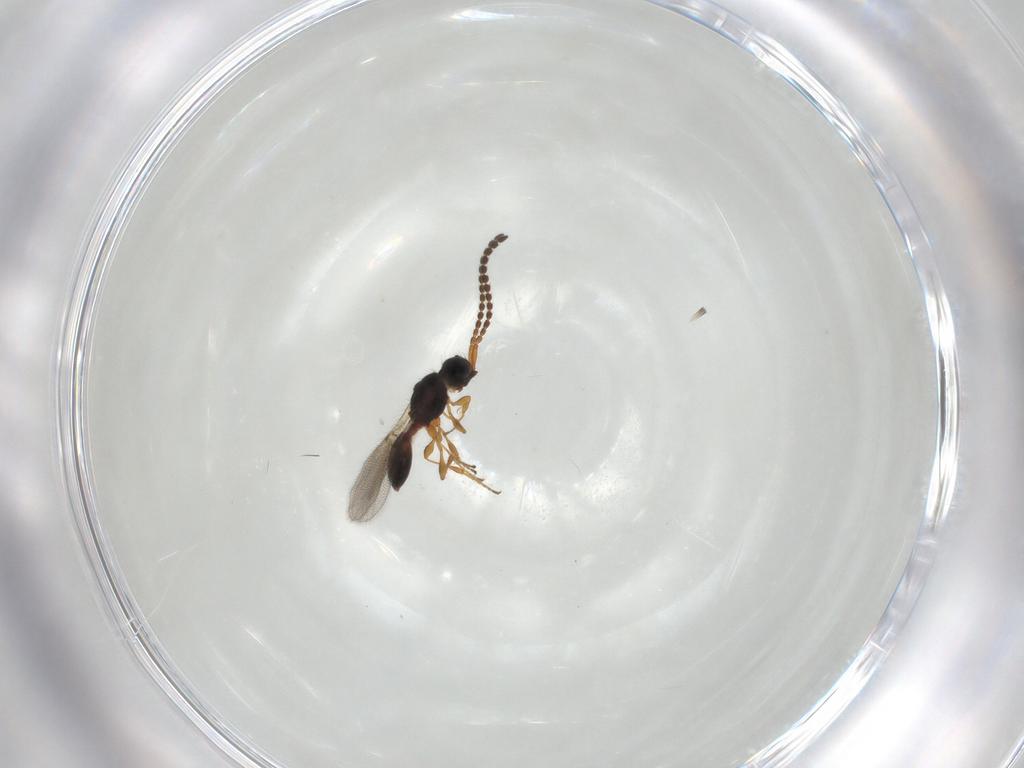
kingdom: Animalia
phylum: Arthropoda
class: Insecta
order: Hymenoptera
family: Diapriidae
